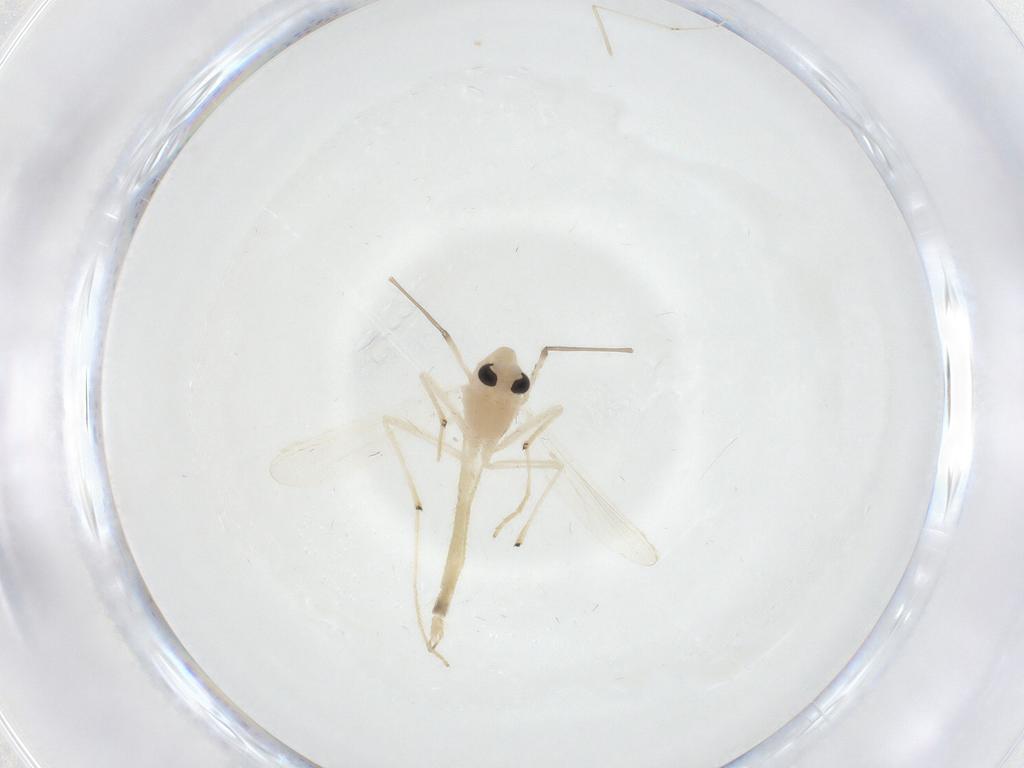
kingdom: Animalia
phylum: Arthropoda
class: Insecta
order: Diptera
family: Chironomidae
